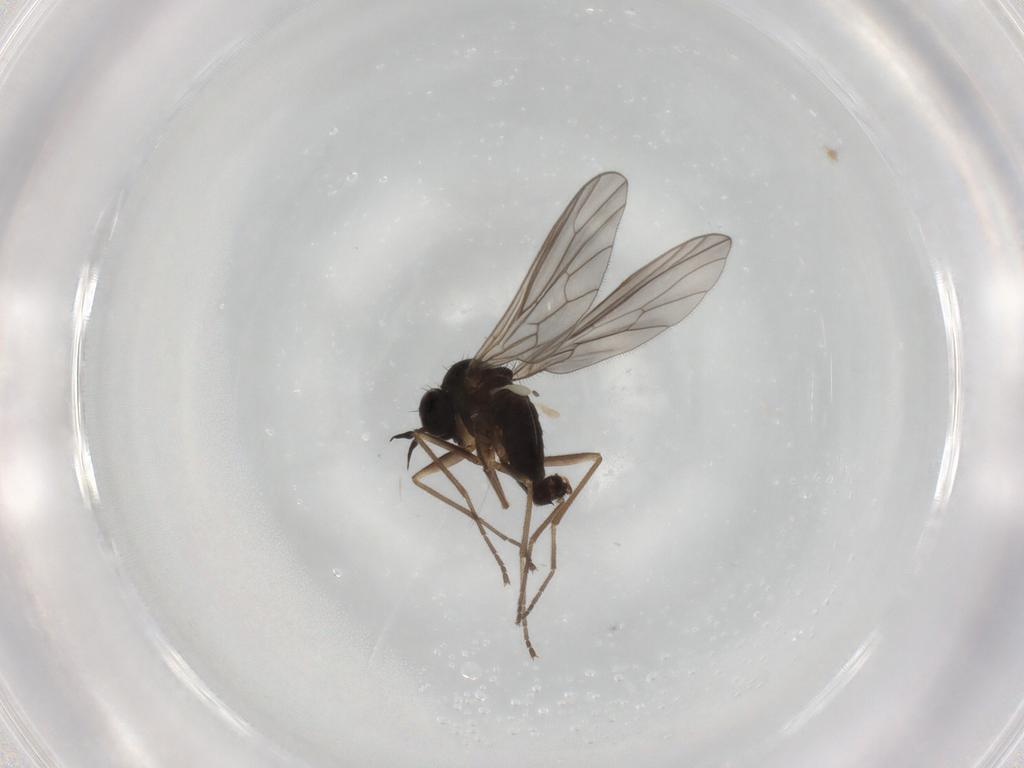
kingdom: Animalia
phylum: Arthropoda
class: Insecta
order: Diptera
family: Empididae
